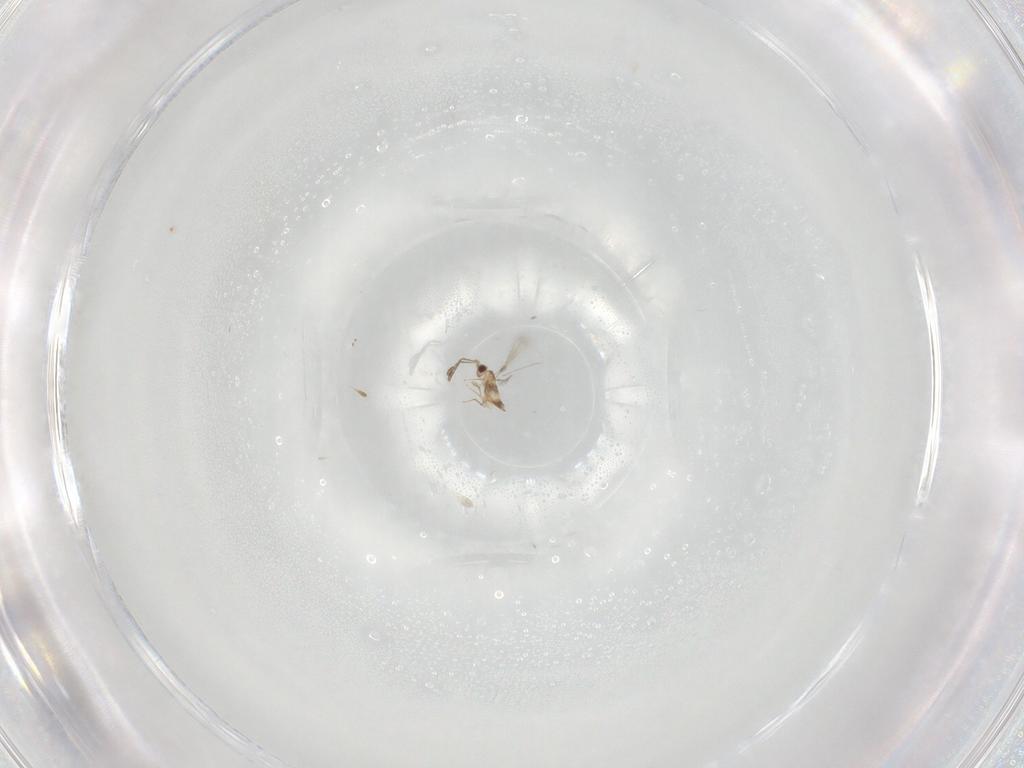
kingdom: Animalia
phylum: Arthropoda
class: Insecta
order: Hymenoptera
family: Mymaridae
